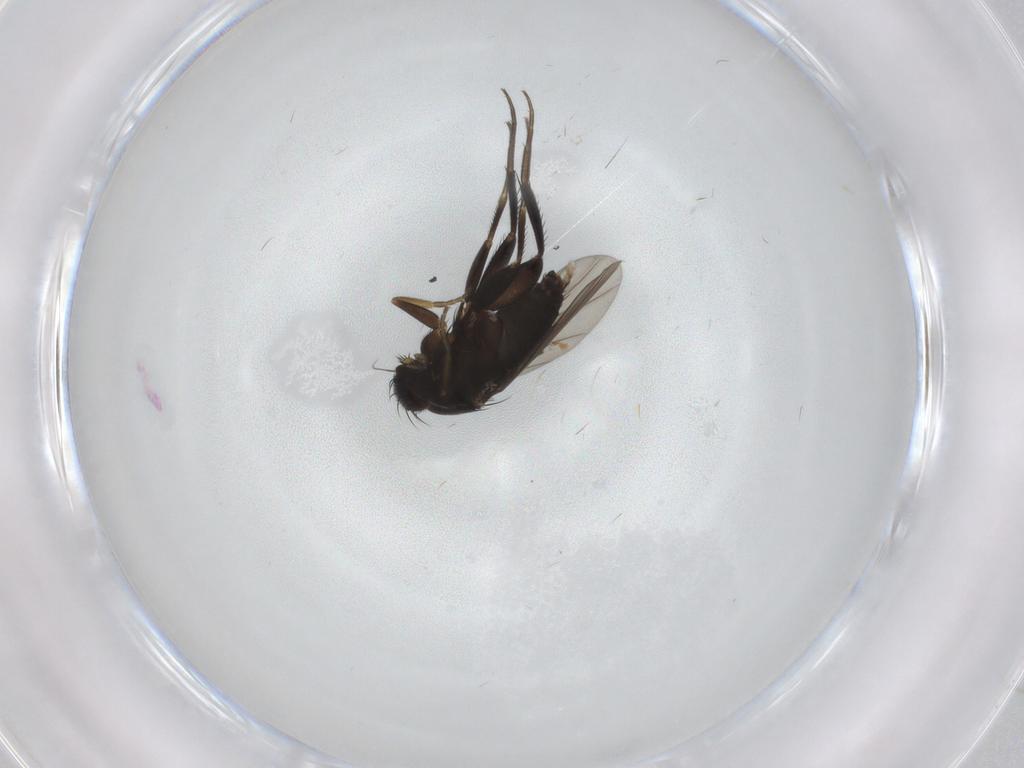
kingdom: Animalia
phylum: Arthropoda
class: Insecta
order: Diptera
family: Phoridae
